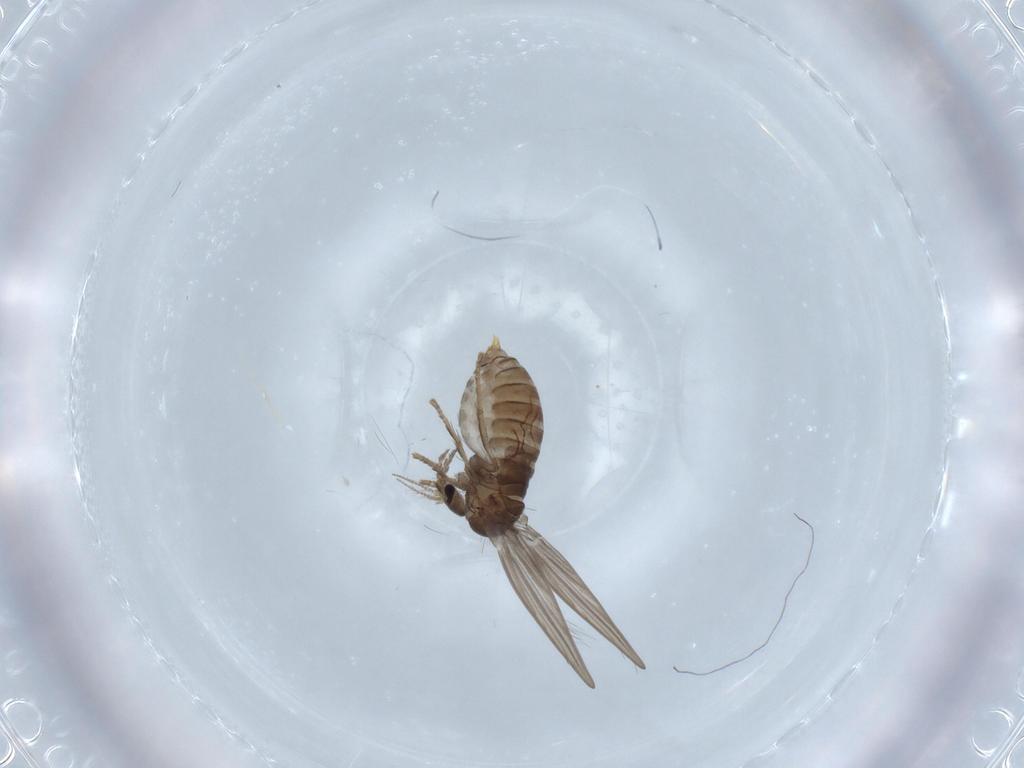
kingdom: Animalia
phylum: Arthropoda
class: Insecta
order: Diptera
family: Psychodidae
